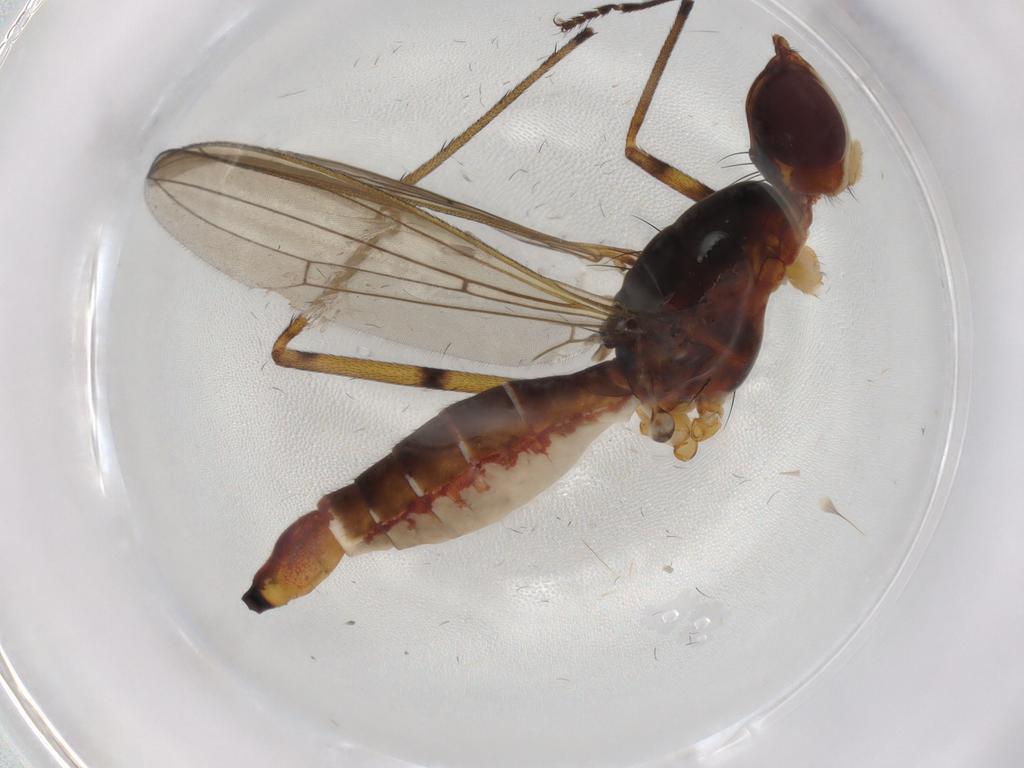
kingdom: Animalia
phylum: Arthropoda
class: Insecta
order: Diptera
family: Micropezidae
